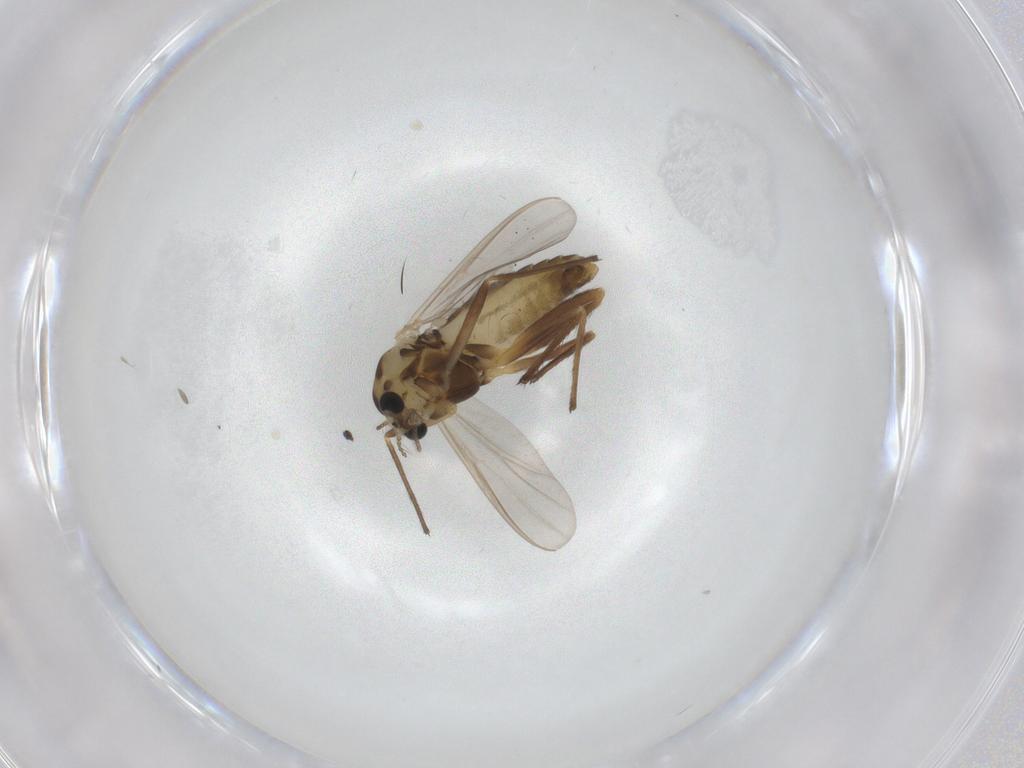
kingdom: Animalia
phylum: Arthropoda
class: Insecta
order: Diptera
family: Chironomidae
